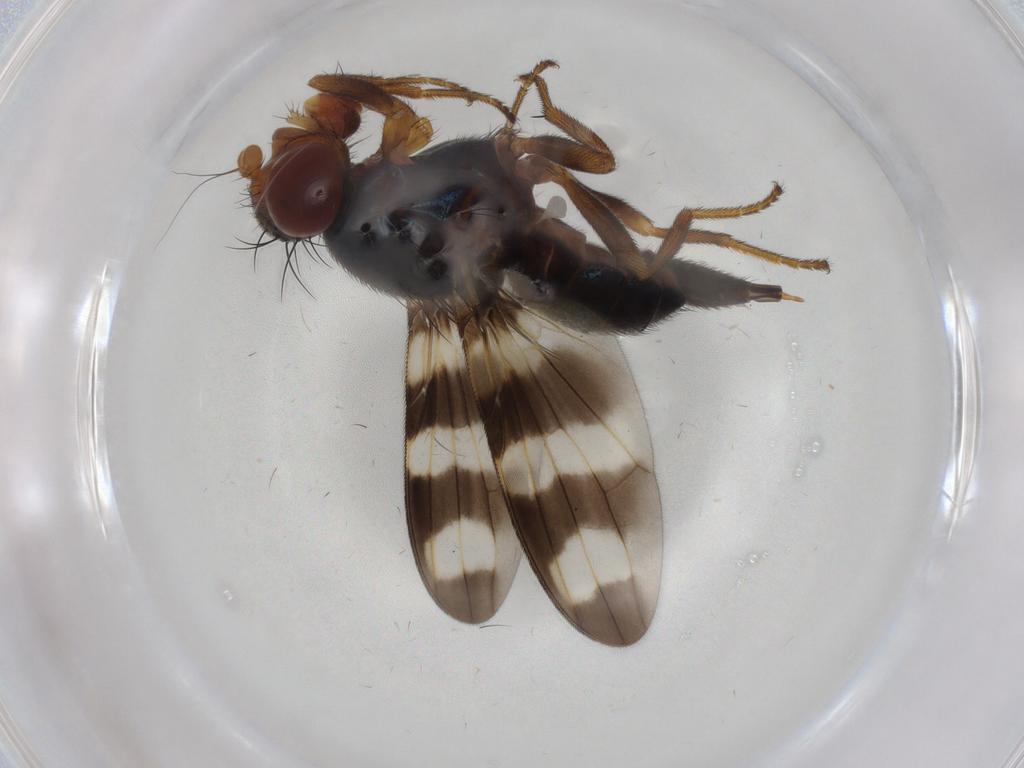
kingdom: Animalia
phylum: Arthropoda
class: Insecta
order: Diptera
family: Ulidiidae
